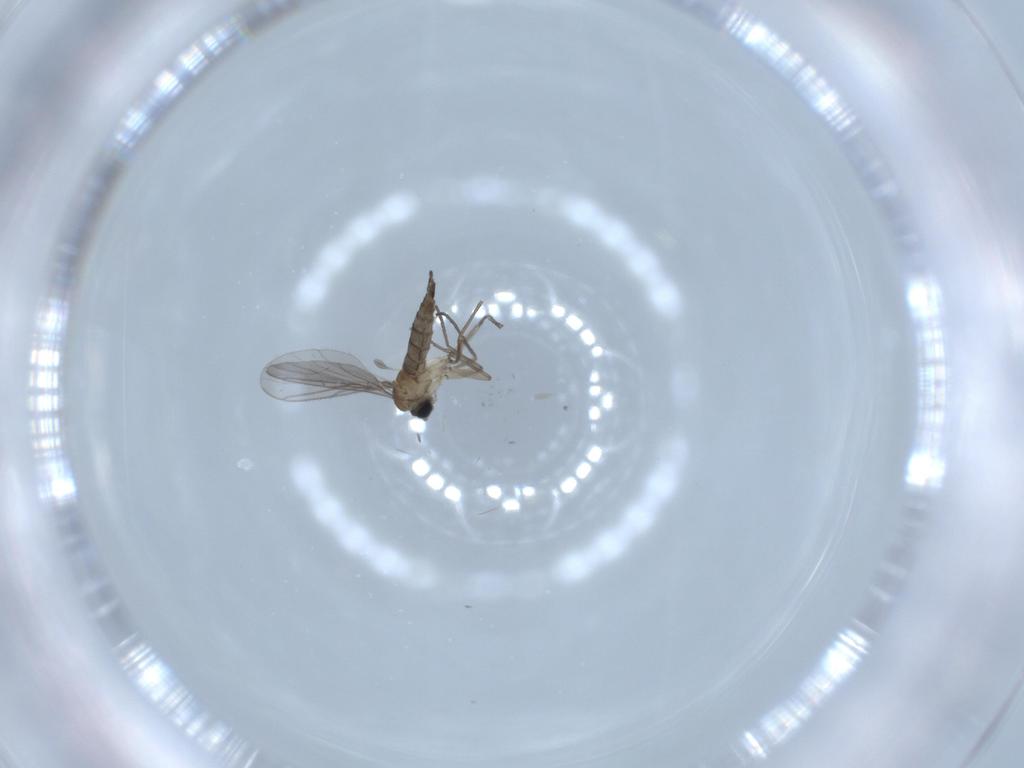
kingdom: Animalia
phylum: Arthropoda
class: Insecta
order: Diptera
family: Sciaridae
